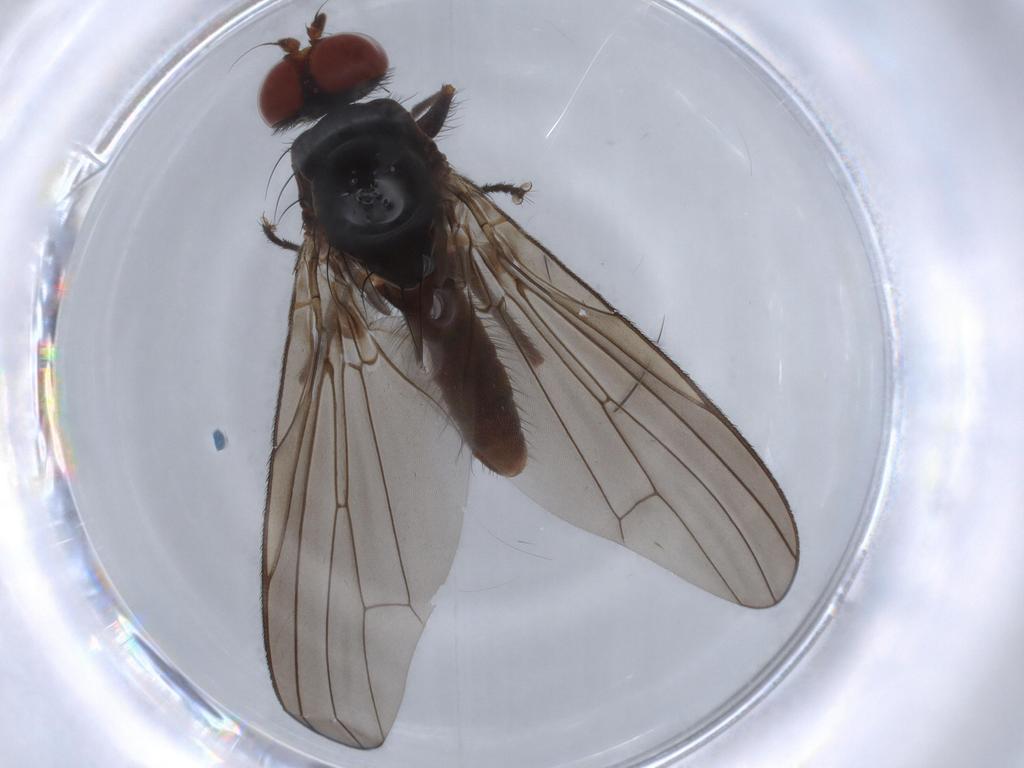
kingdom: Animalia
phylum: Arthropoda
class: Insecta
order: Diptera
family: Heleomyzidae
